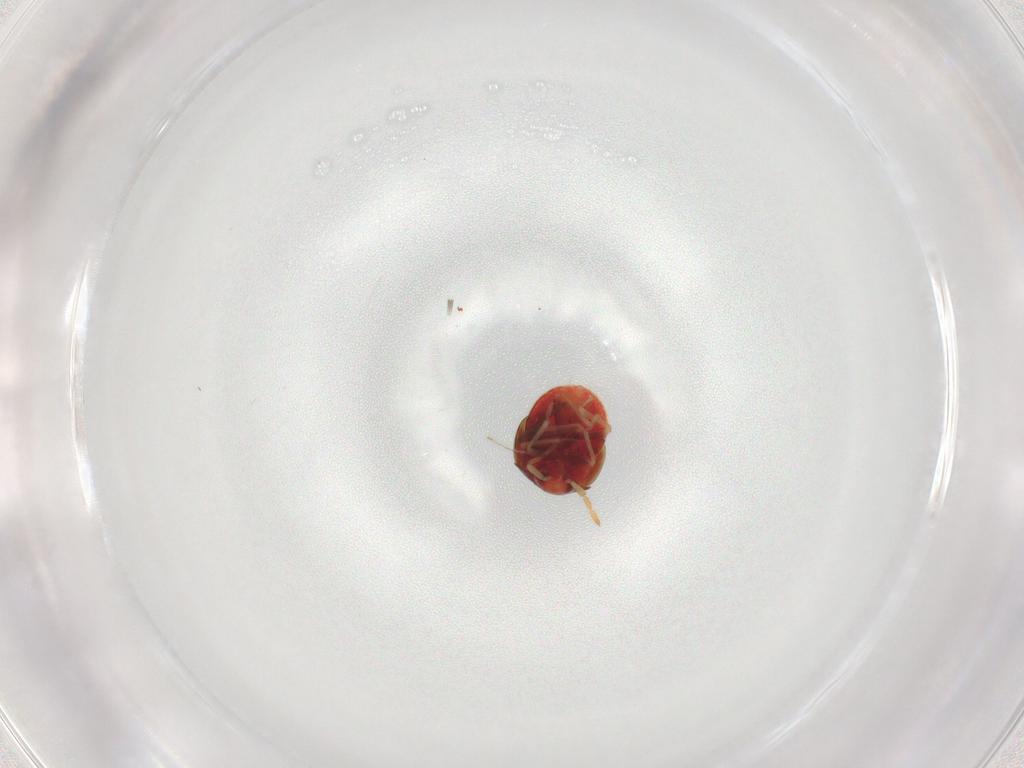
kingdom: Animalia
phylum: Arthropoda
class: Insecta
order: Hemiptera
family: Anthocoridae
